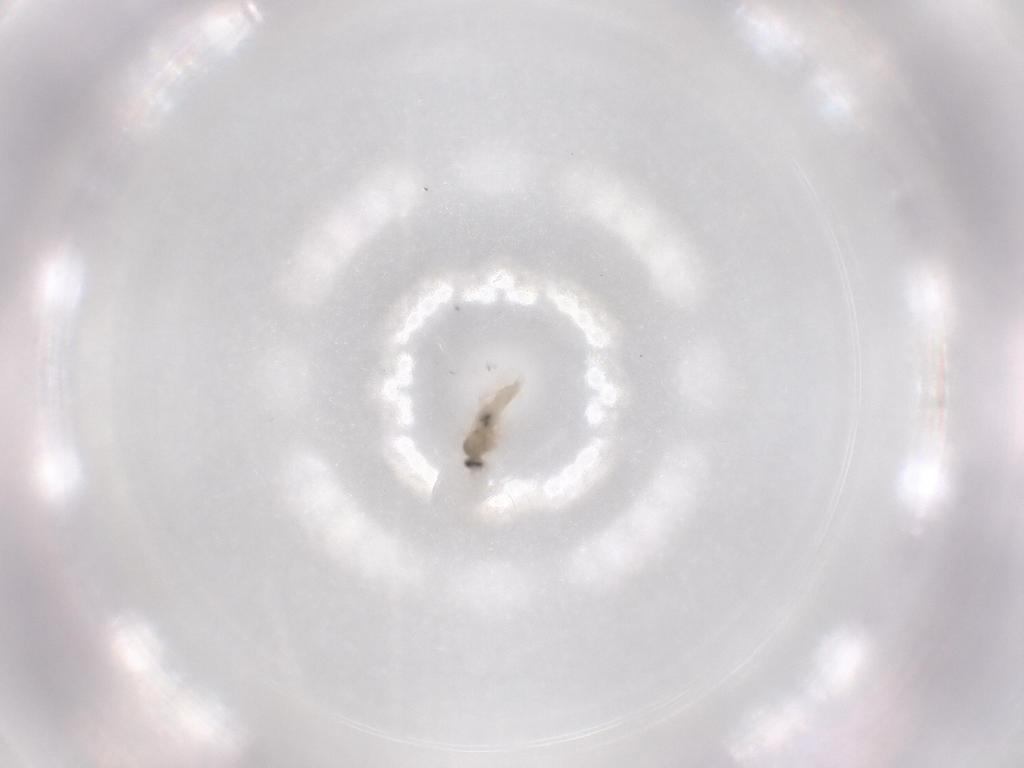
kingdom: Animalia
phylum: Arthropoda
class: Insecta
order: Diptera
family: Cecidomyiidae
